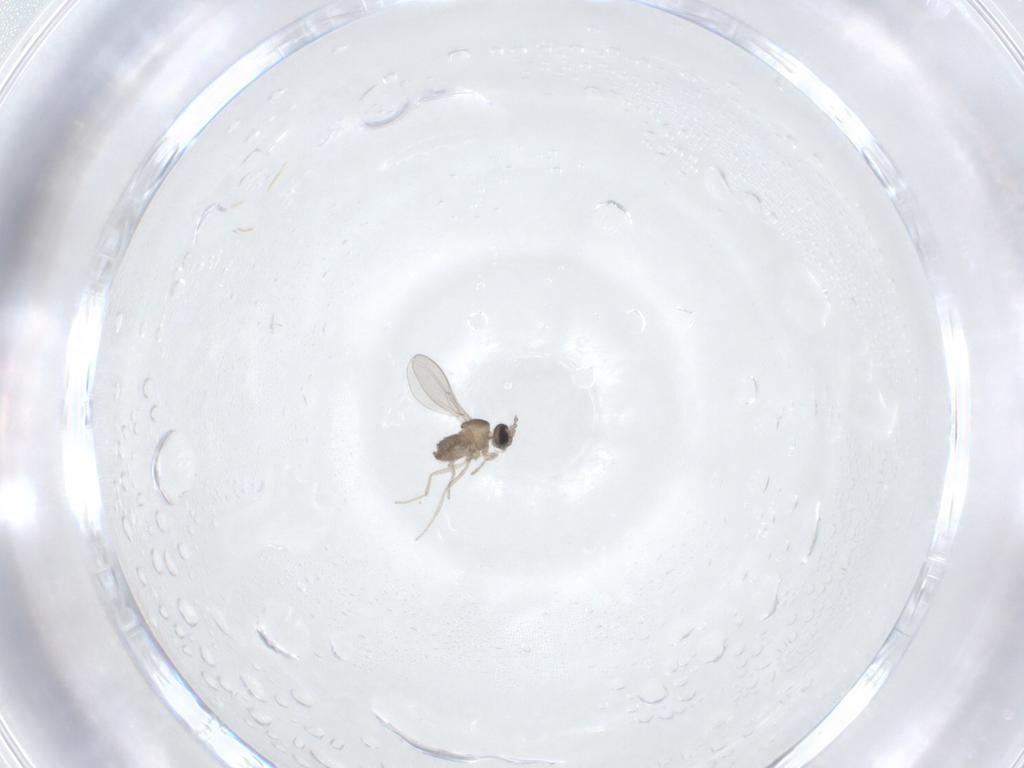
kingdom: Animalia
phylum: Arthropoda
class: Insecta
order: Diptera
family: Cecidomyiidae
